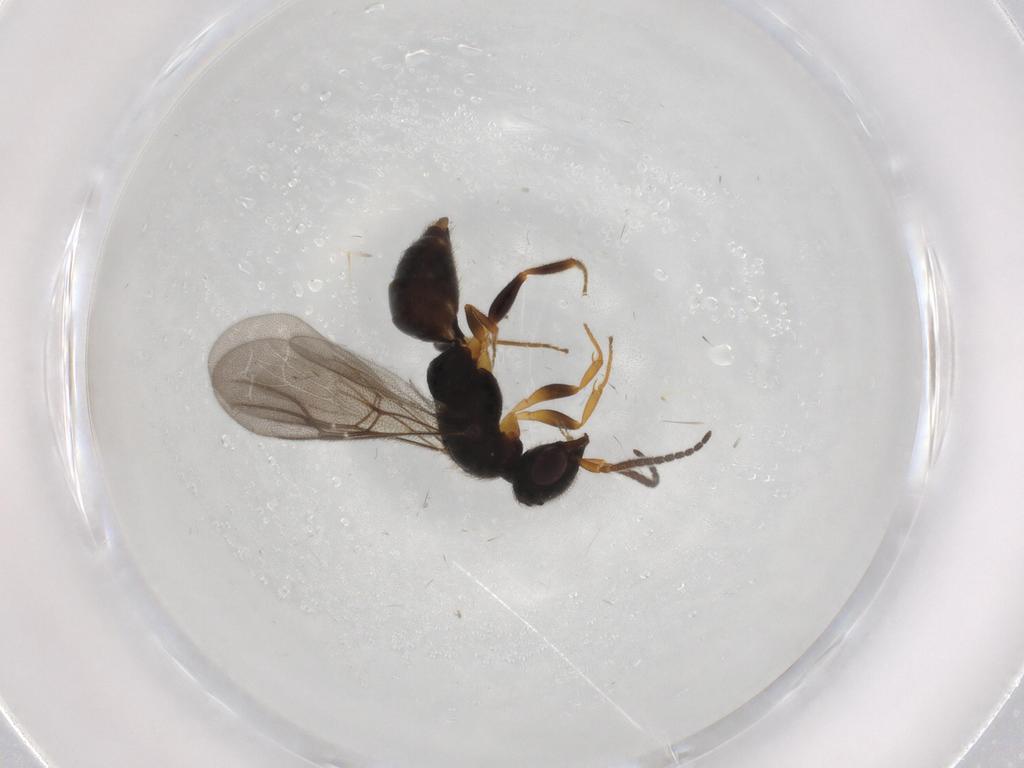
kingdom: Animalia
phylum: Arthropoda
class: Insecta
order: Hymenoptera
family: Bethylidae
